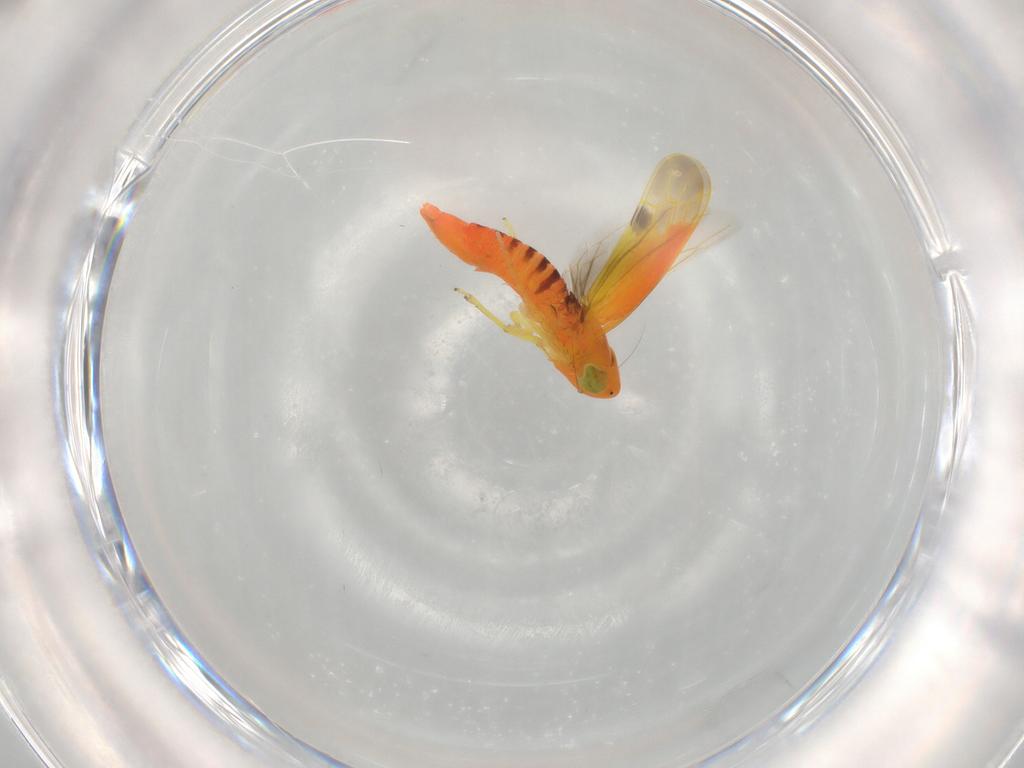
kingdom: Animalia
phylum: Arthropoda
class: Insecta
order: Hemiptera
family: Cicadellidae
